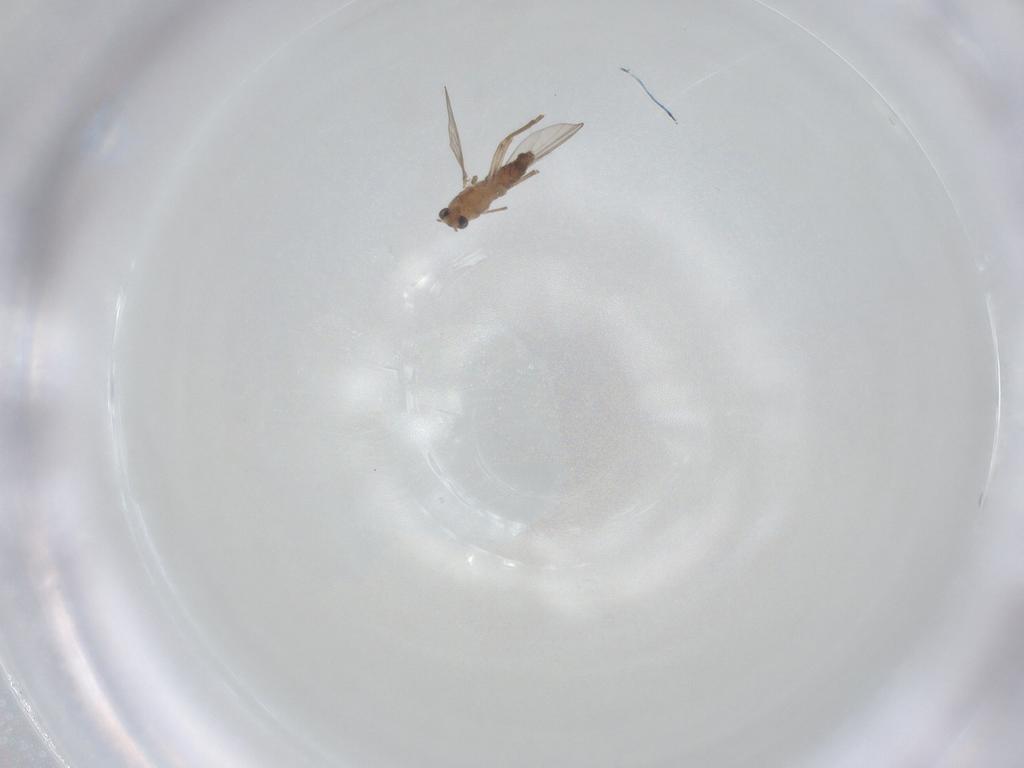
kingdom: Animalia
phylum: Arthropoda
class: Insecta
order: Diptera
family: Chironomidae
